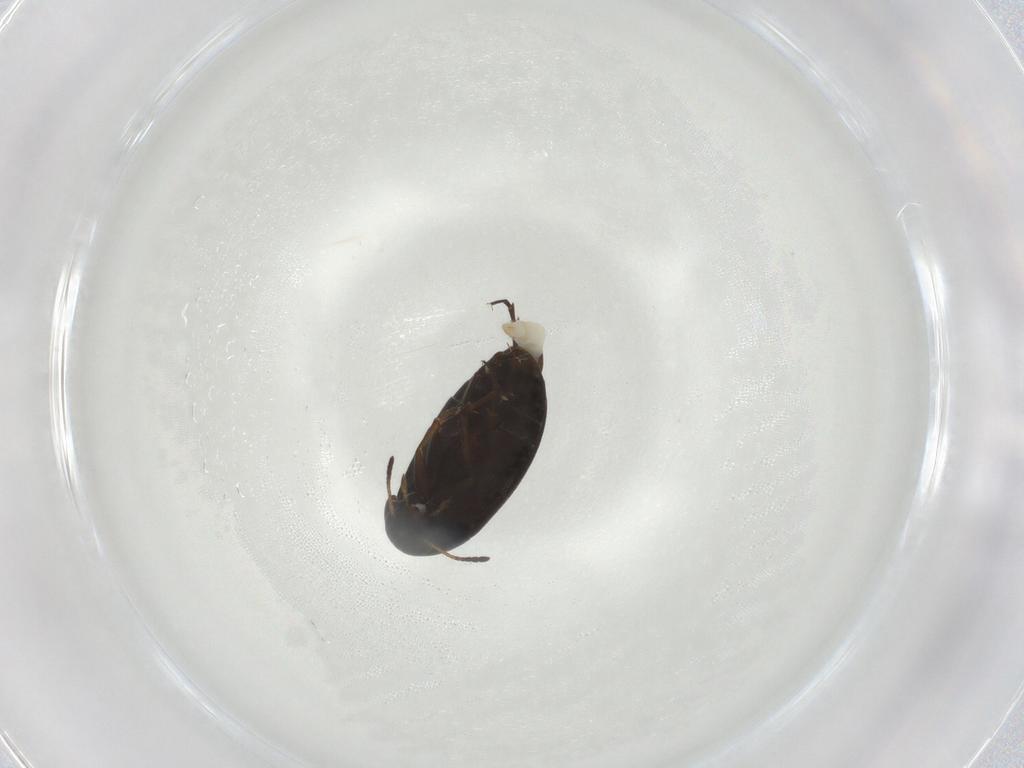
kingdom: Animalia
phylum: Arthropoda
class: Insecta
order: Coleoptera
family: Scraptiidae
